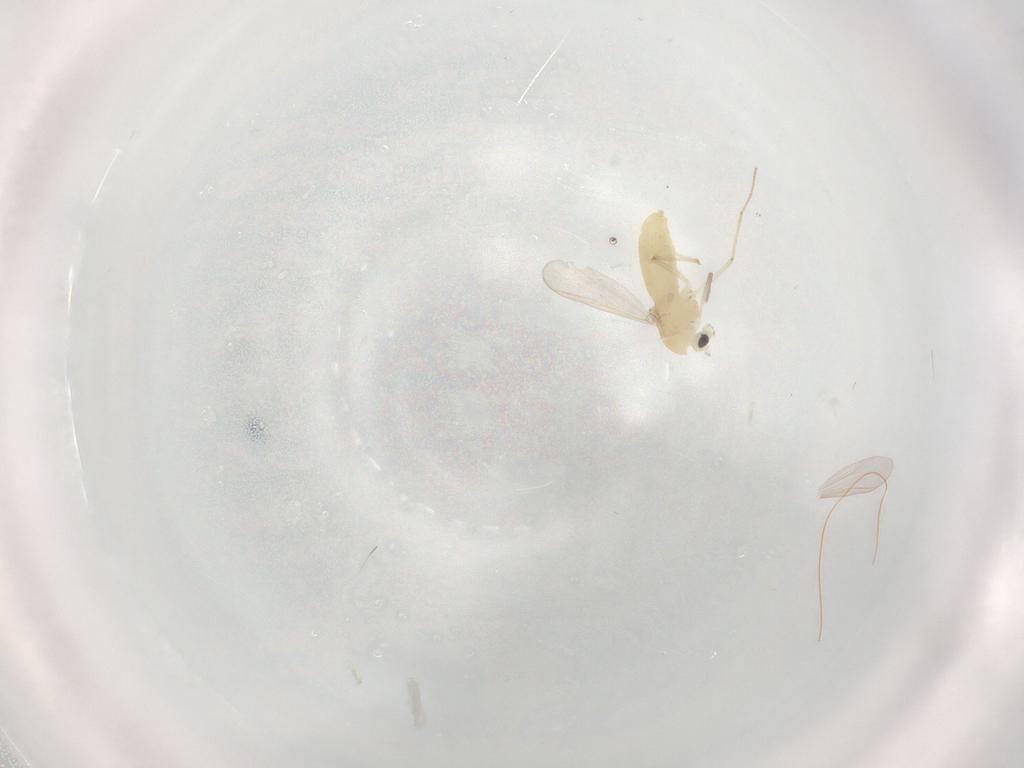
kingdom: Animalia
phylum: Arthropoda
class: Insecta
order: Diptera
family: Chironomidae
